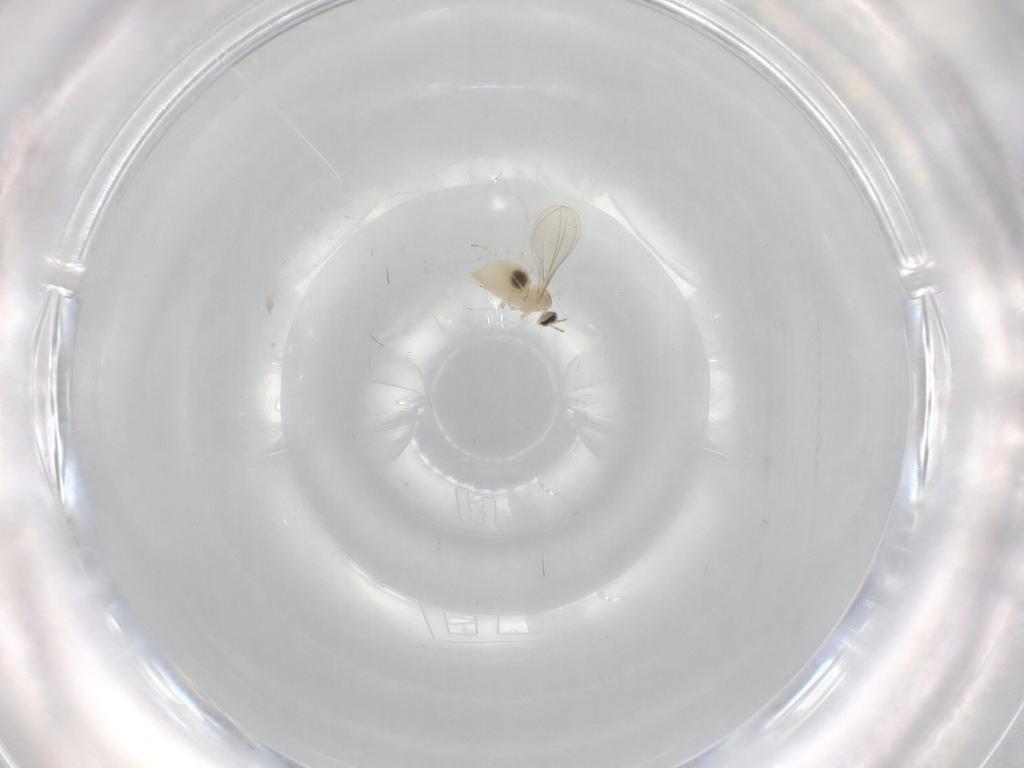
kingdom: Animalia
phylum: Arthropoda
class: Insecta
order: Diptera
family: Cecidomyiidae
